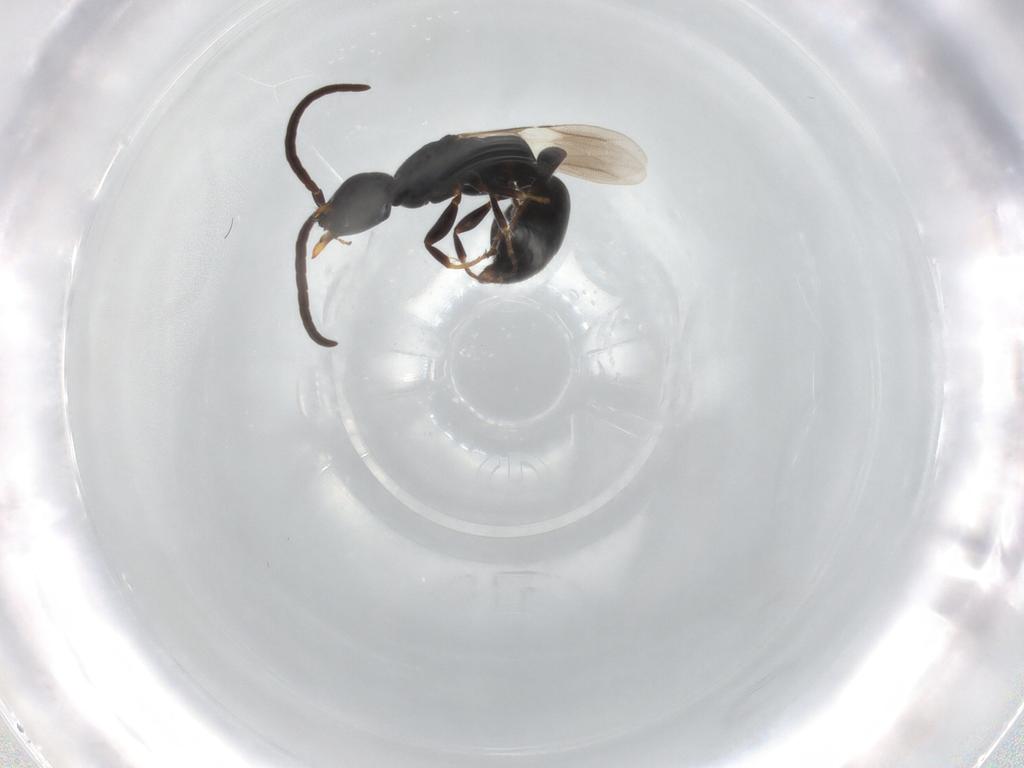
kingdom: Animalia
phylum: Arthropoda
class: Insecta
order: Hymenoptera
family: Bethylidae
